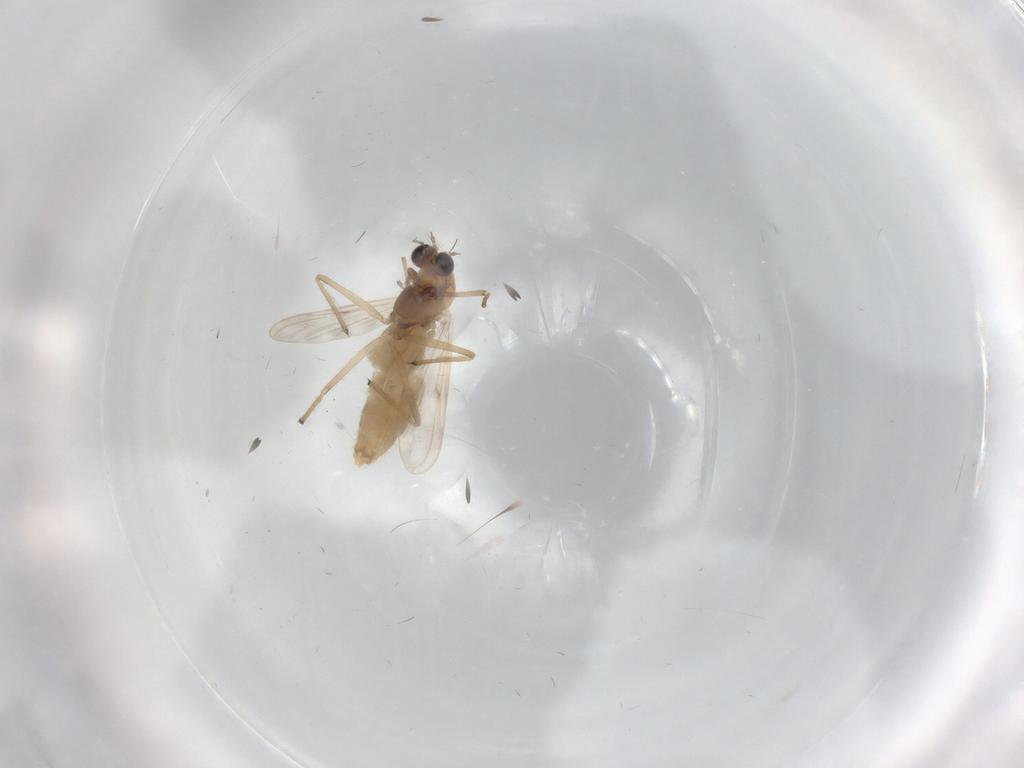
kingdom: Animalia
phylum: Arthropoda
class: Insecta
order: Diptera
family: Chironomidae
